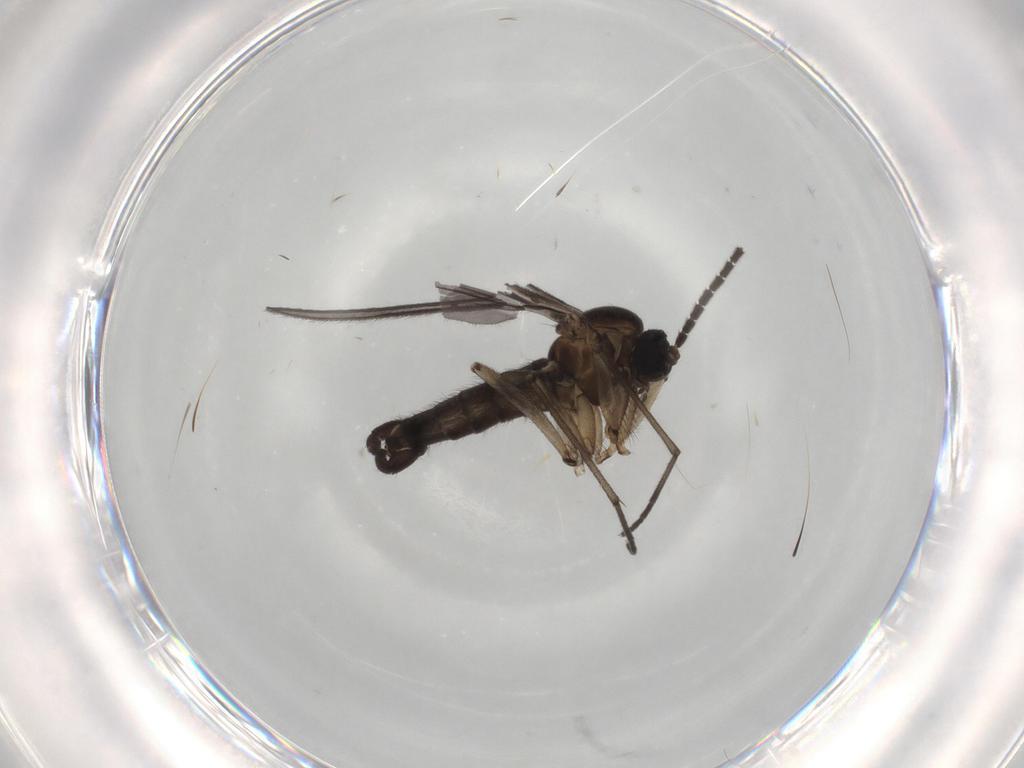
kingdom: Animalia
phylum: Arthropoda
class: Insecta
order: Diptera
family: Sciaridae
